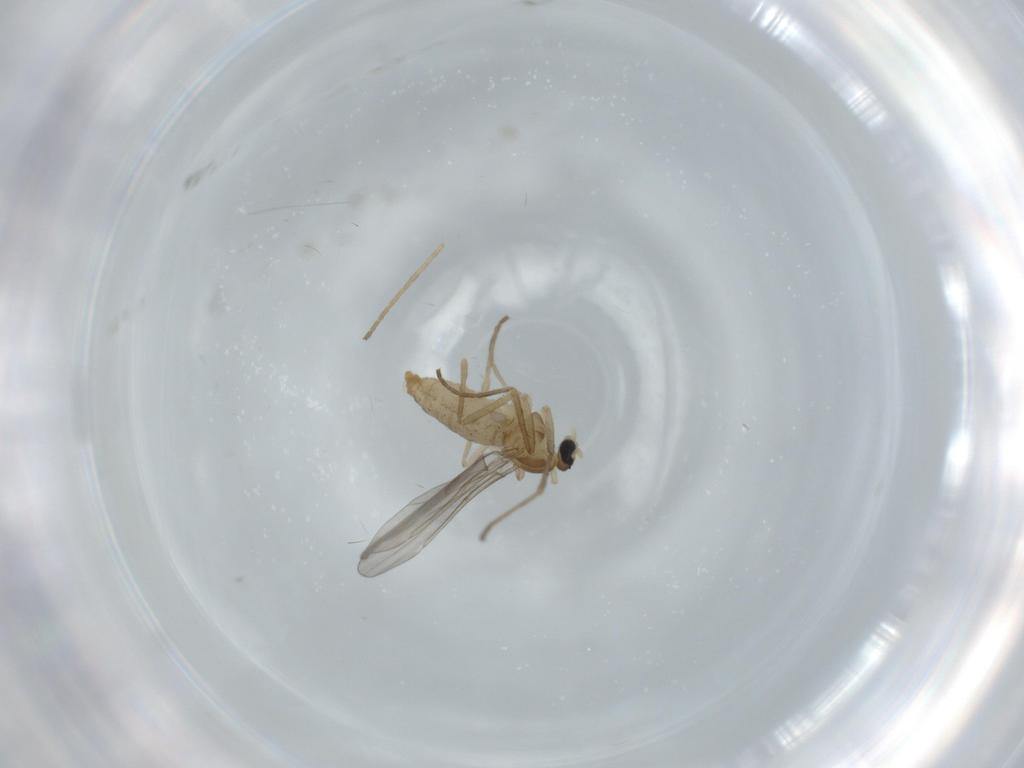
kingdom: Animalia
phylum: Arthropoda
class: Insecta
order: Diptera
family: Cecidomyiidae
